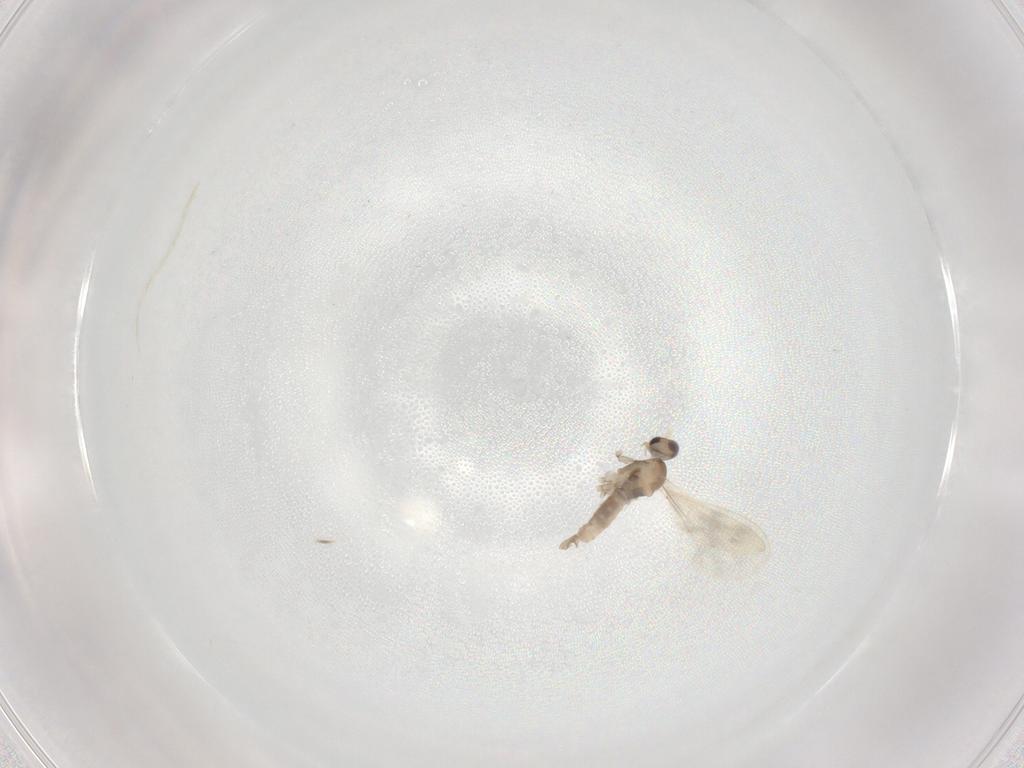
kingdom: Animalia
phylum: Arthropoda
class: Insecta
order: Diptera
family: Cecidomyiidae
